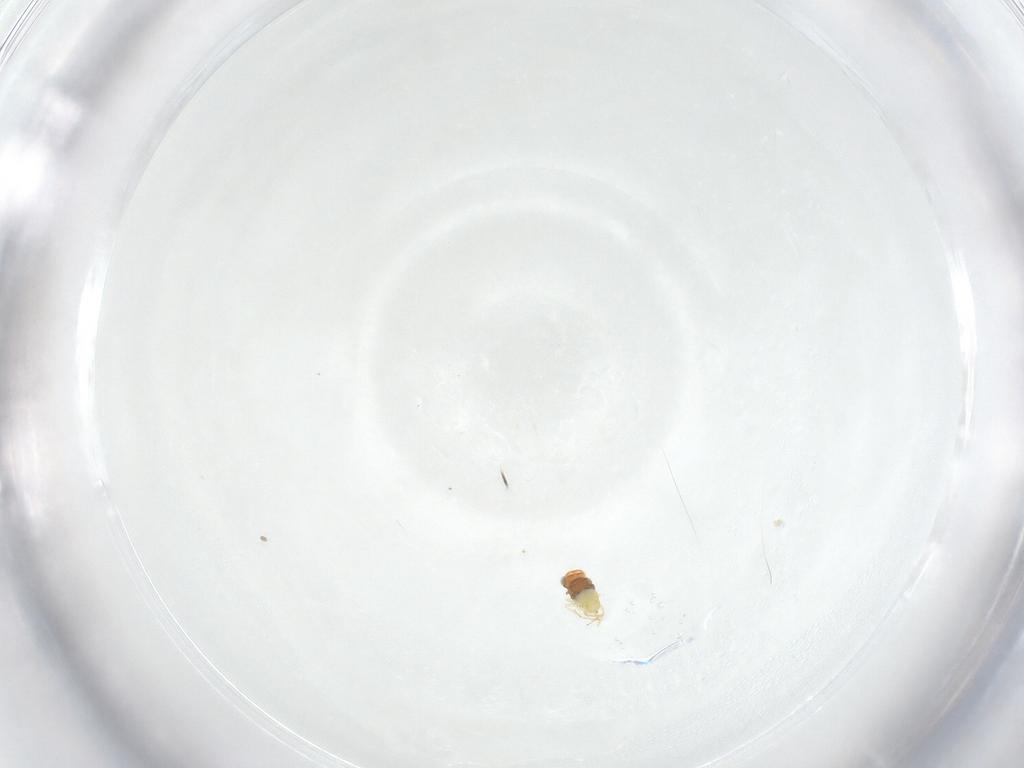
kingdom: Animalia
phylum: Arthropoda
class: Insecta
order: Hymenoptera
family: Aphelinidae
